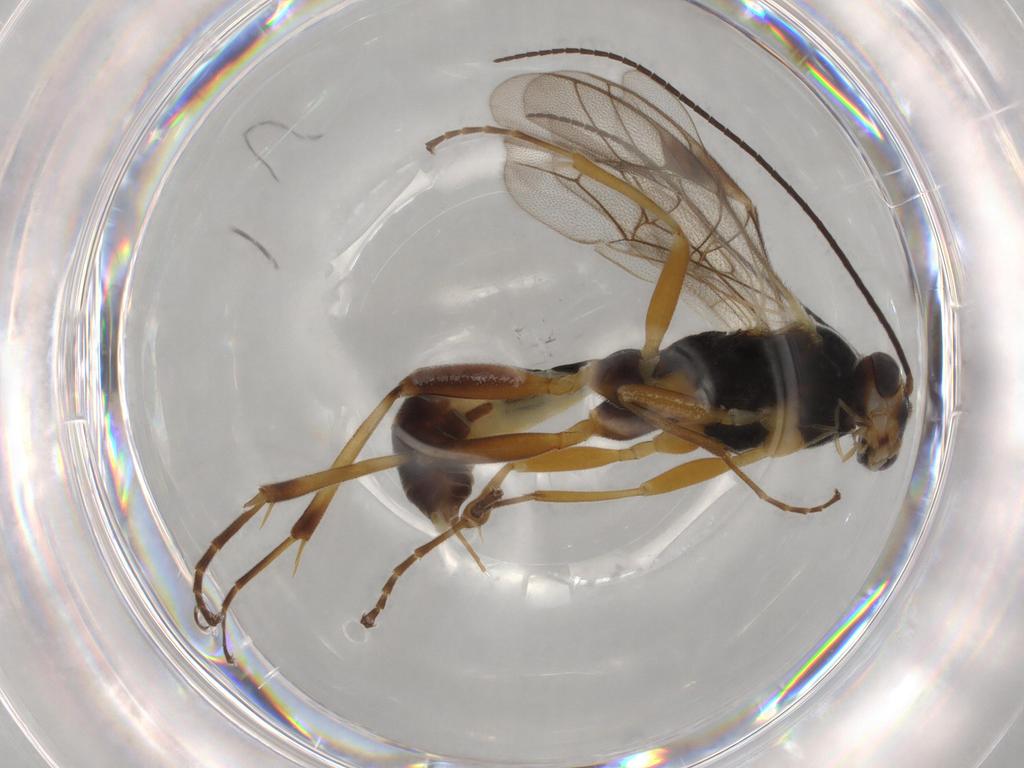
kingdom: Animalia
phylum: Arthropoda
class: Insecta
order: Hymenoptera
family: Ichneumonidae
